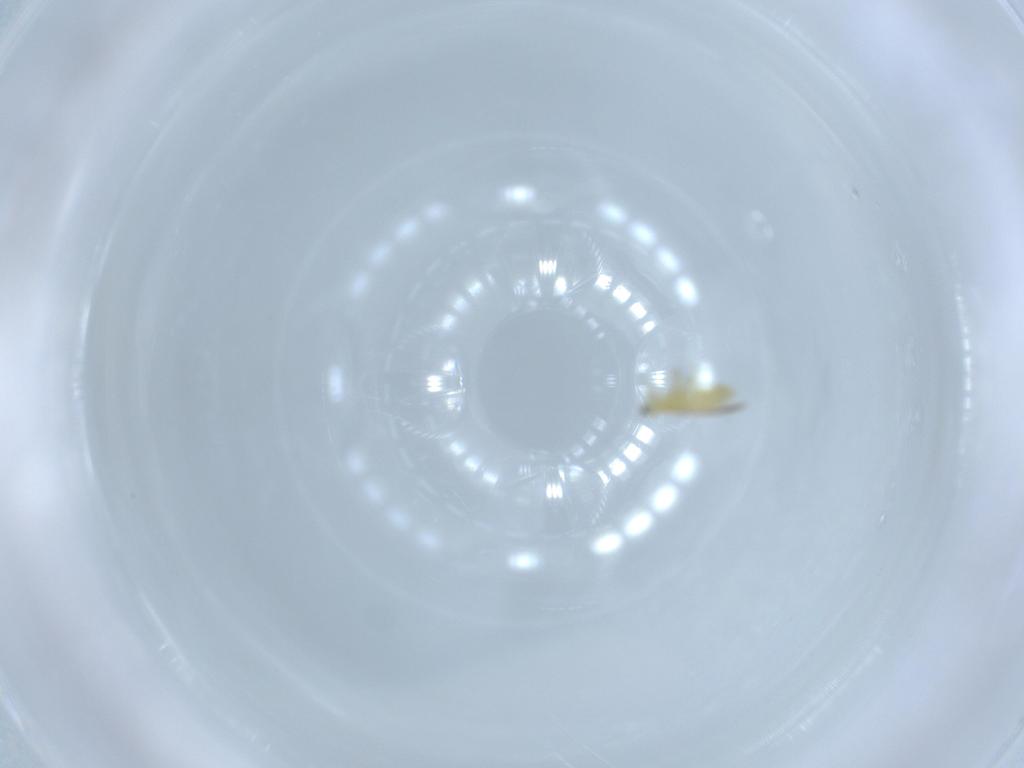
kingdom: Animalia
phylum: Arthropoda
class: Insecta
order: Thysanoptera
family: Thripidae
